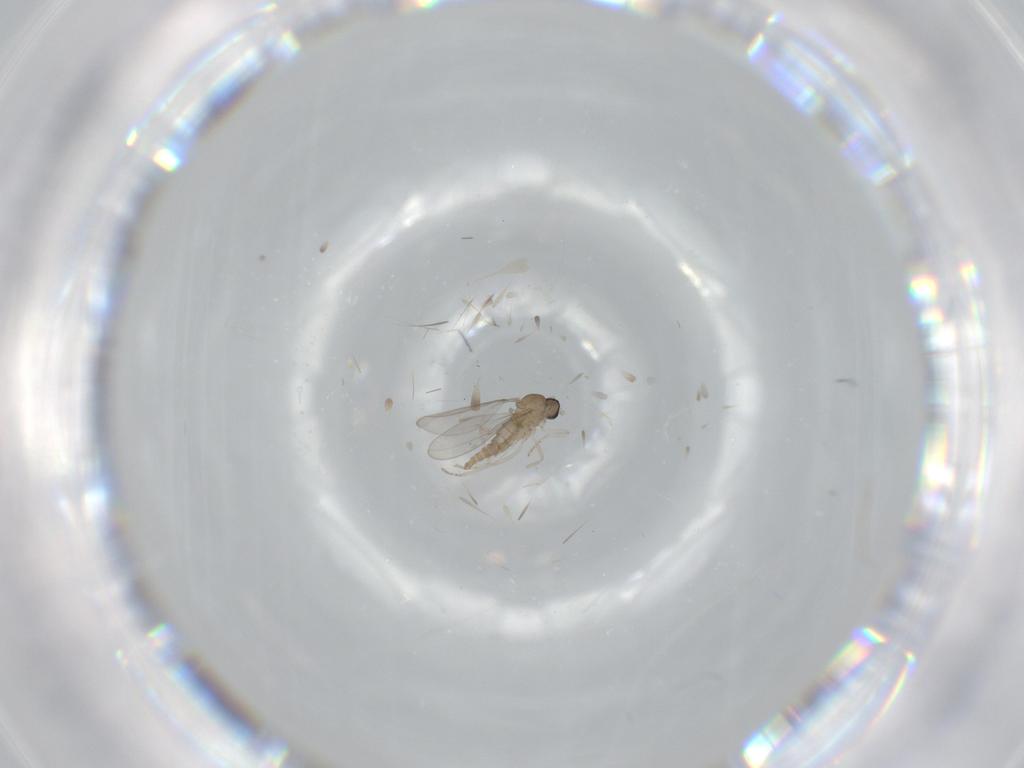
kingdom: Animalia
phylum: Arthropoda
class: Insecta
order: Diptera
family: Cecidomyiidae
